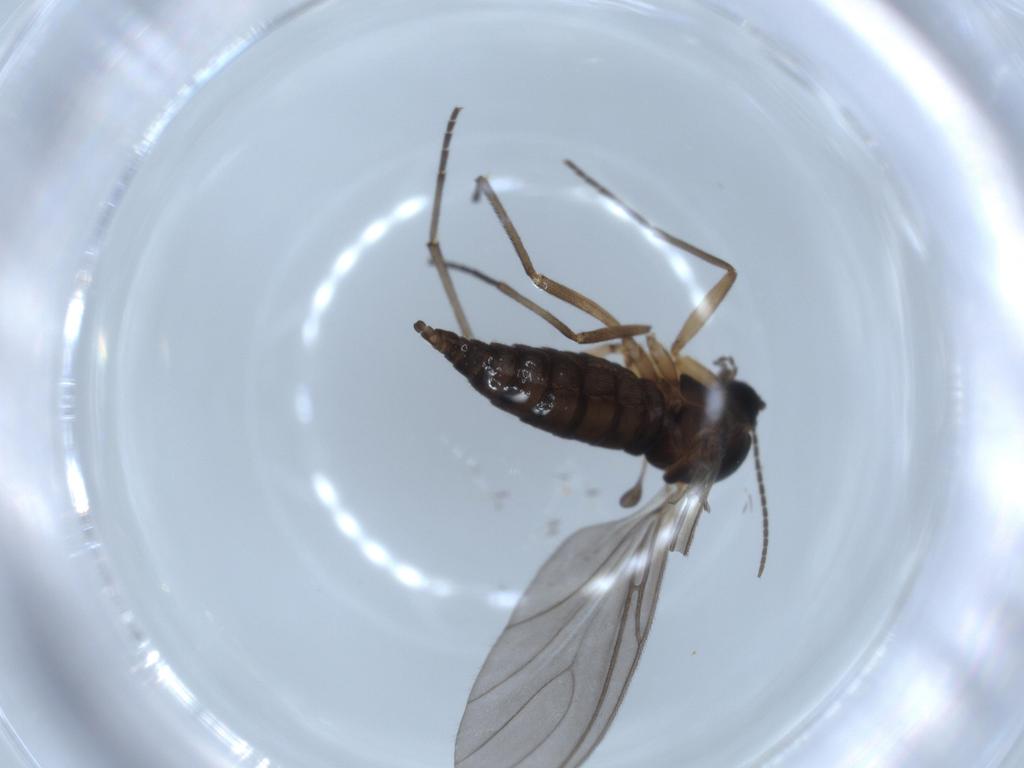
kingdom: Animalia
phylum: Arthropoda
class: Insecta
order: Diptera
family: Sciaridae
